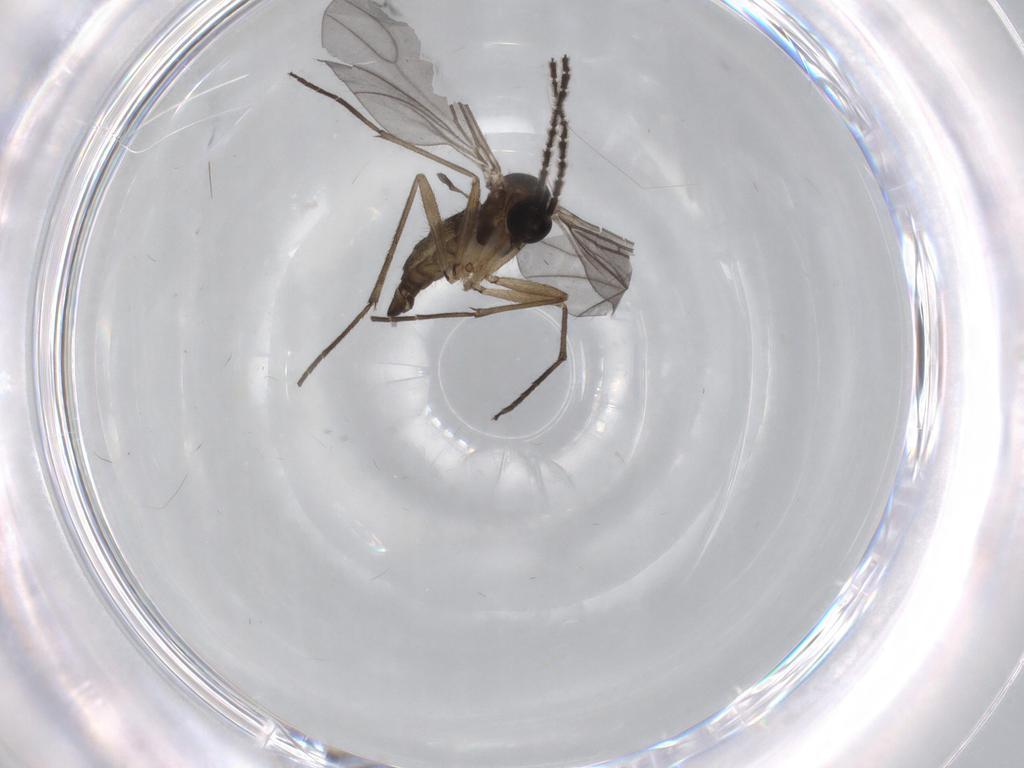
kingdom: Animalia
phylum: Arthropoda
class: Insecta
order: Diptera
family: Sciaridae
